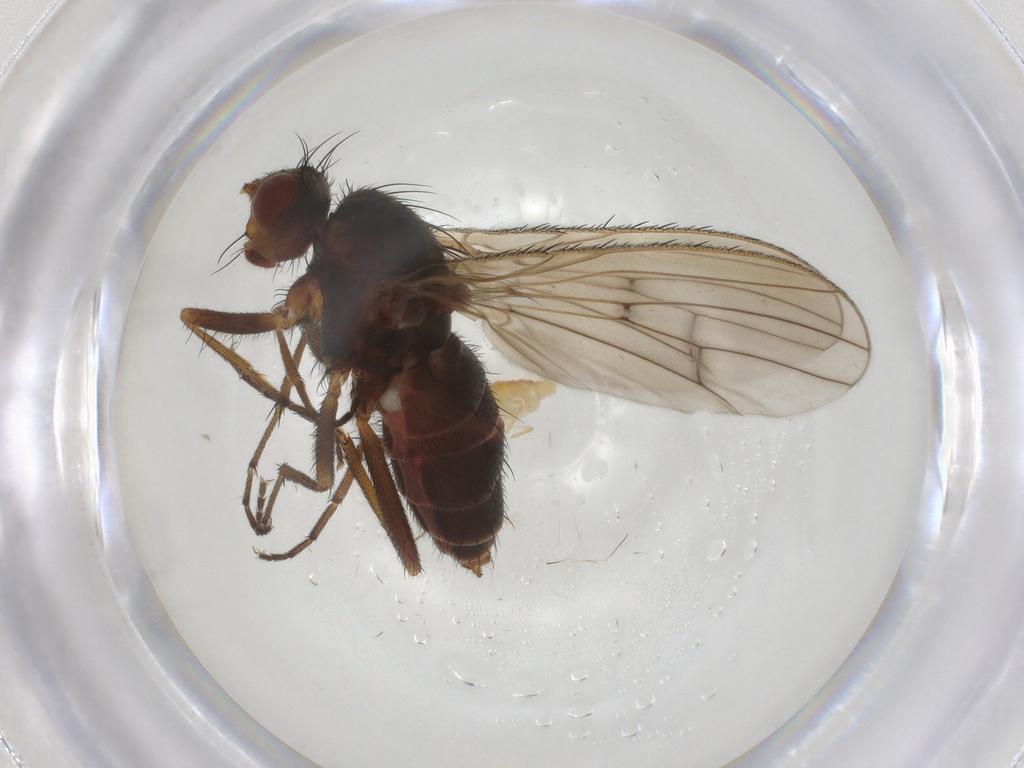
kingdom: Animalia
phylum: Arthropoda
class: Insecta
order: Diptera
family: Heleomyzidae
